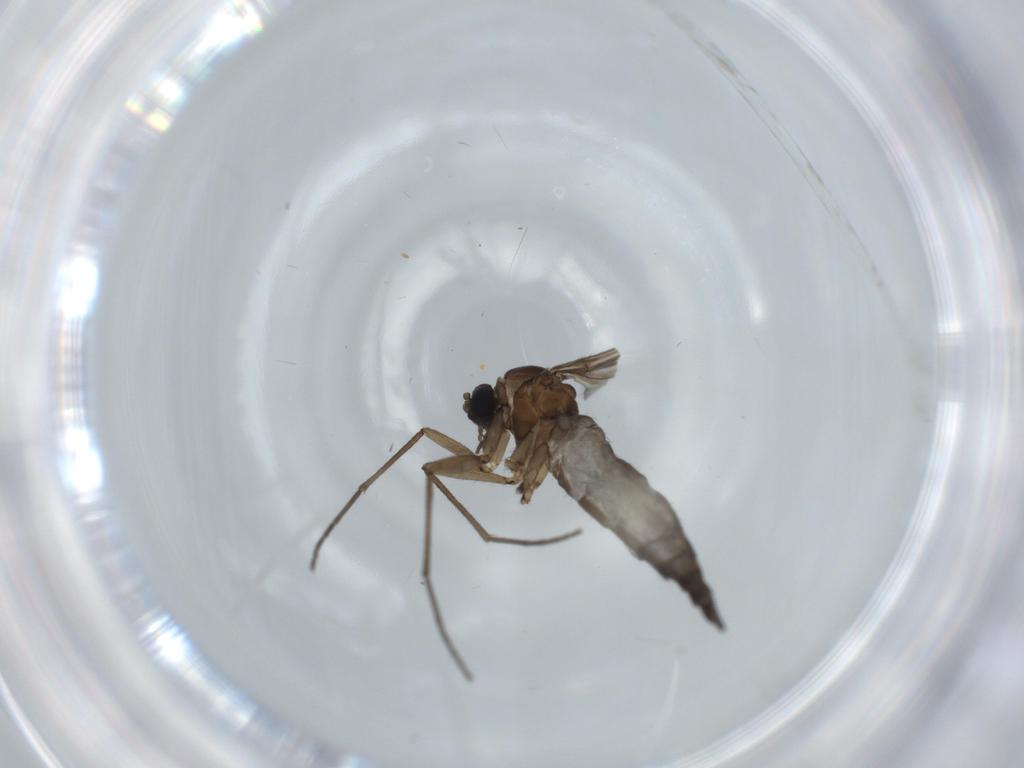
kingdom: Animalia
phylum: Arthropoda
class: Insecta
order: Diptera
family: Sciaridae
